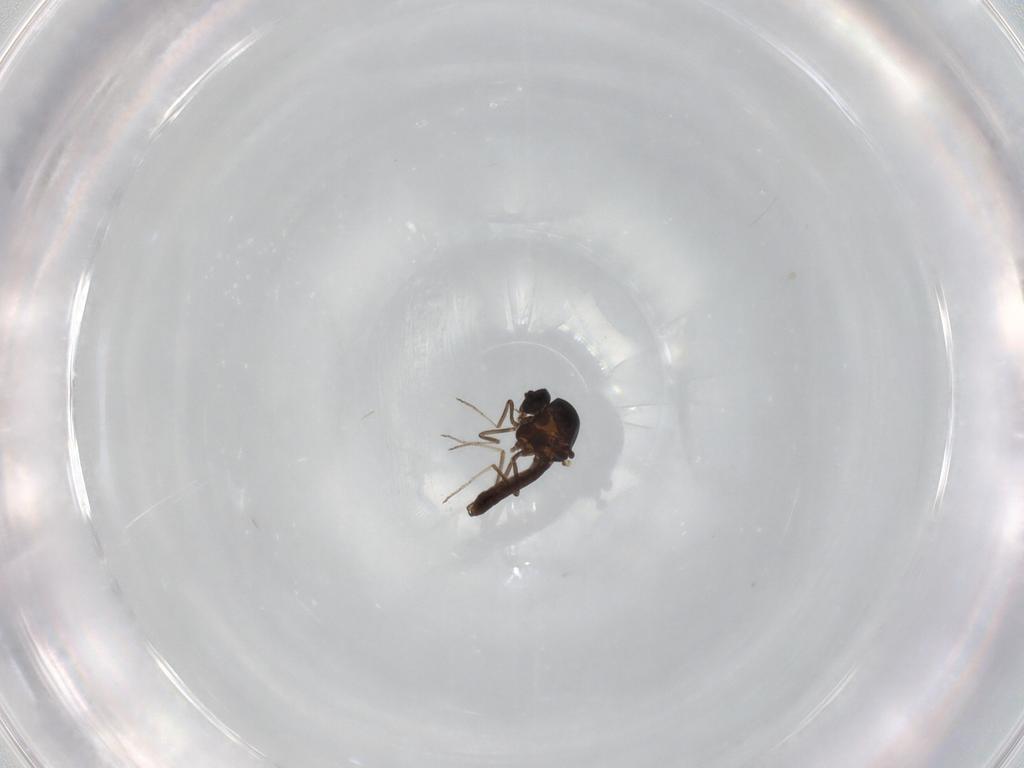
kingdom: Animalia
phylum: Arthropoda
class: Insecta
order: Diptera
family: Ceratopogonidae
